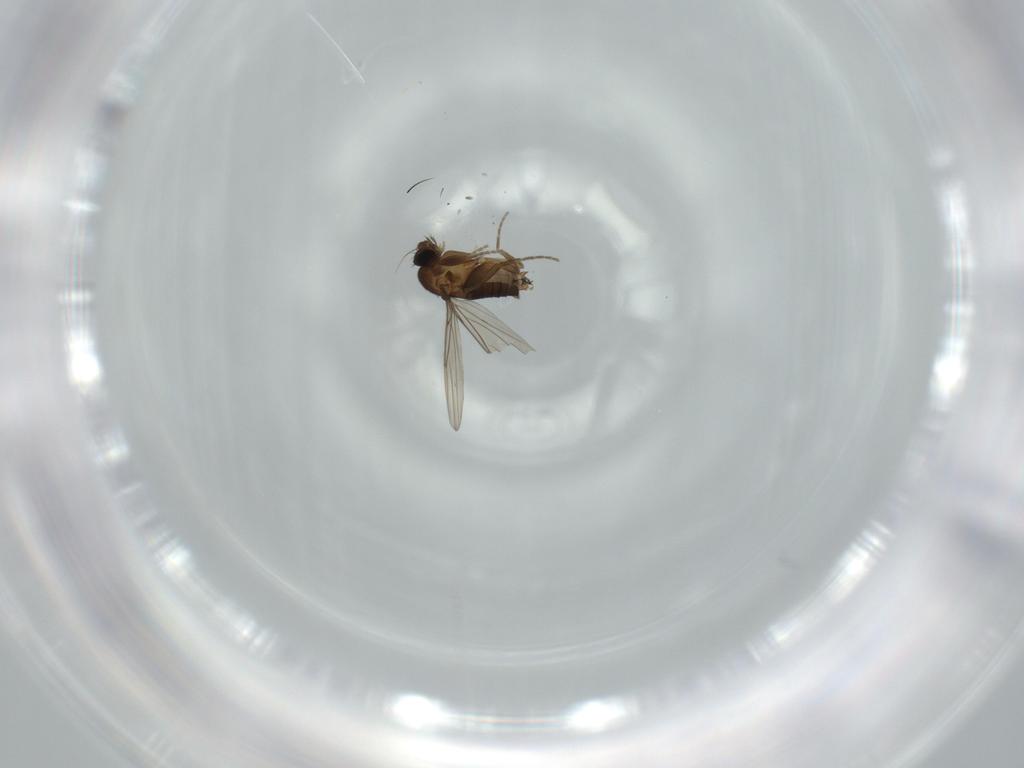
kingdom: Animalia
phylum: Arthropoda
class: Insecta
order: Diptera
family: Phoridae
